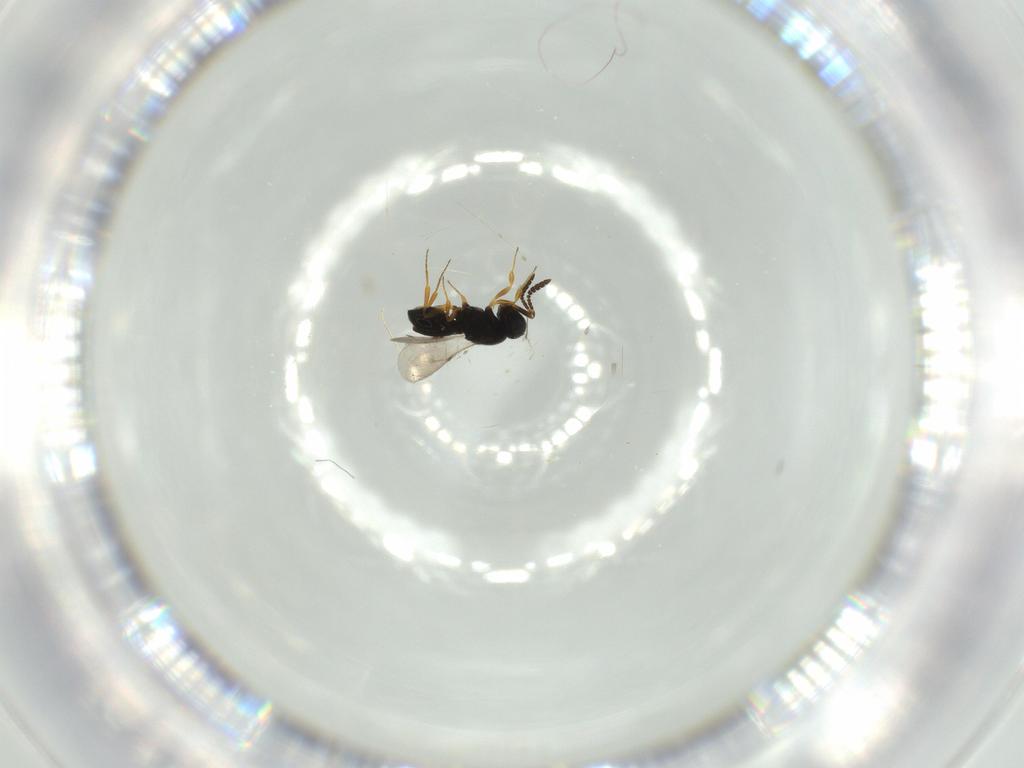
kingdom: Animalia
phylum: Arthropoda
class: Insecta
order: Hymenoptera
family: Scelionidae
